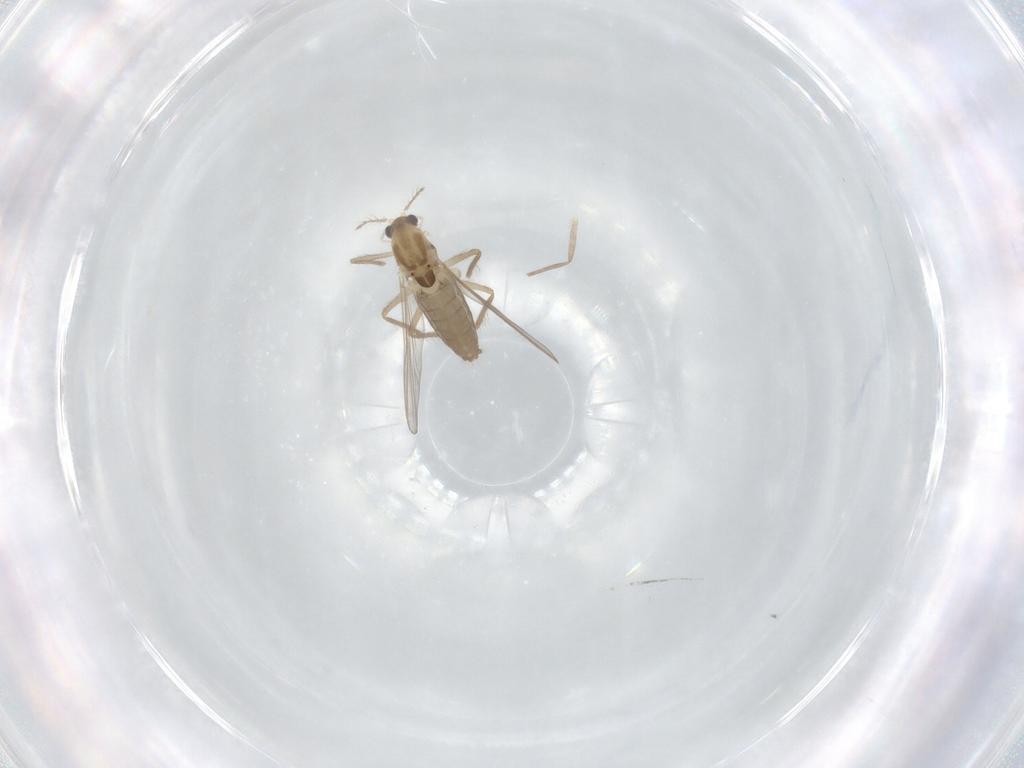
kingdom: Animalia
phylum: Arthropoda
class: Insecta
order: Diptera
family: Chironomidae
